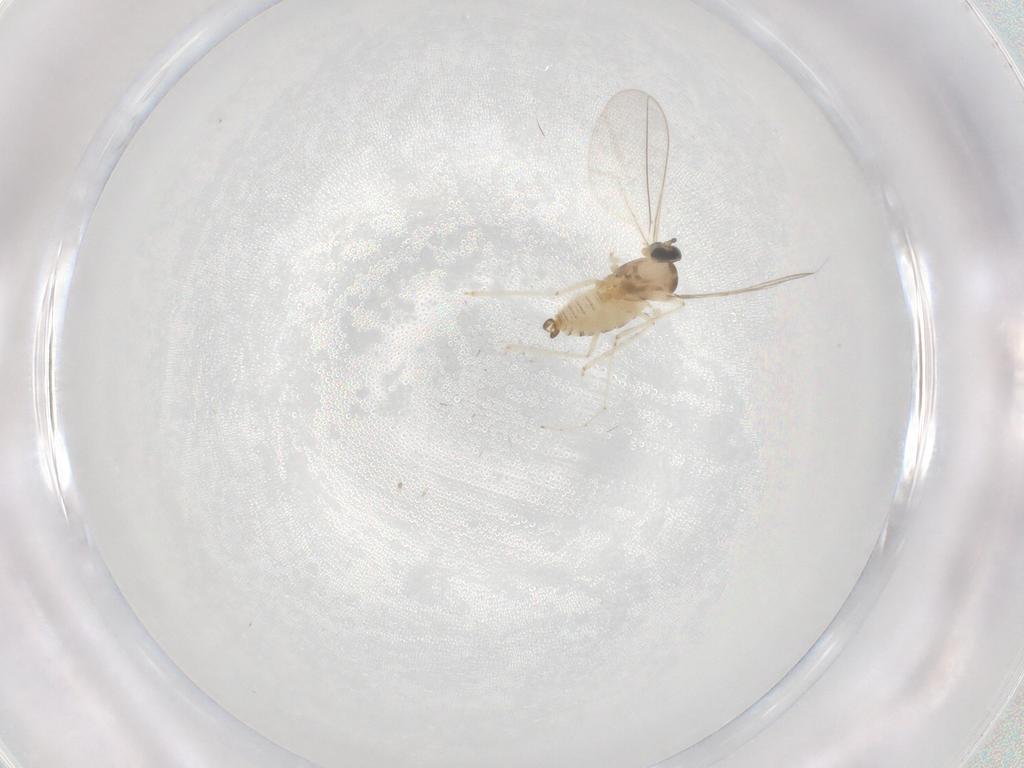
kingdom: Animalia
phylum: Arthropoda
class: Insecta
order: Diptera
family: Cecidomyiidae
